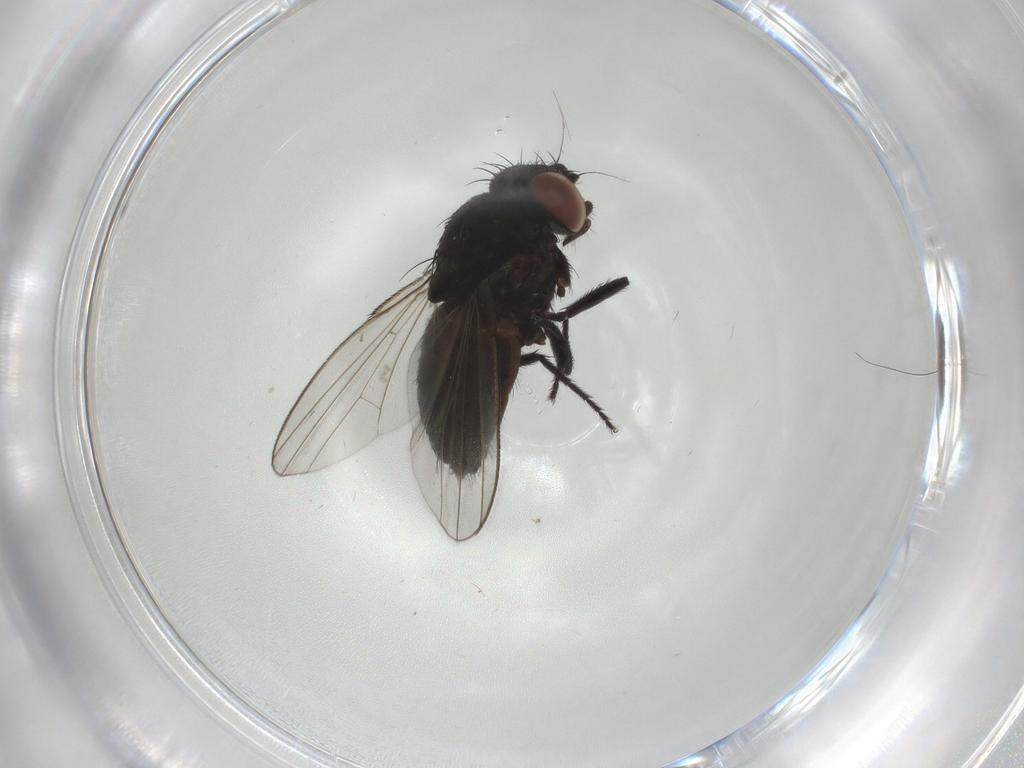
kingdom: Animalia
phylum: Arthropoda
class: Insecta
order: Diptera
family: Milichiidae
